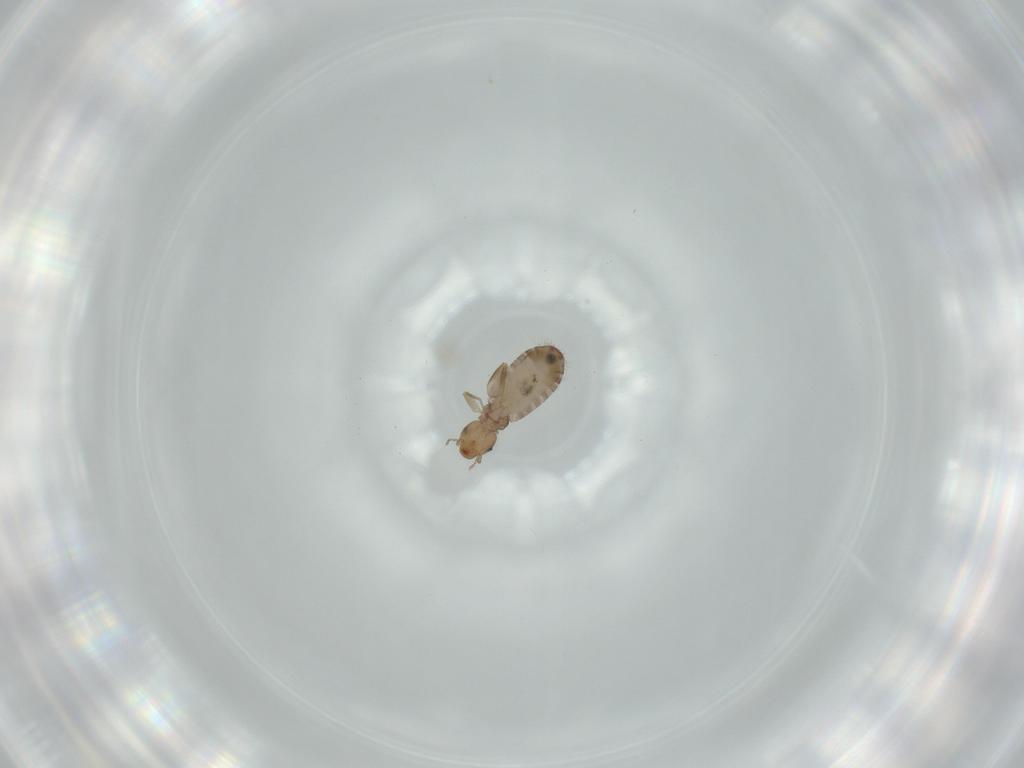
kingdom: Animalia
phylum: Arthropoda
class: Insecta
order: Psocodea
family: Liposcelididae
